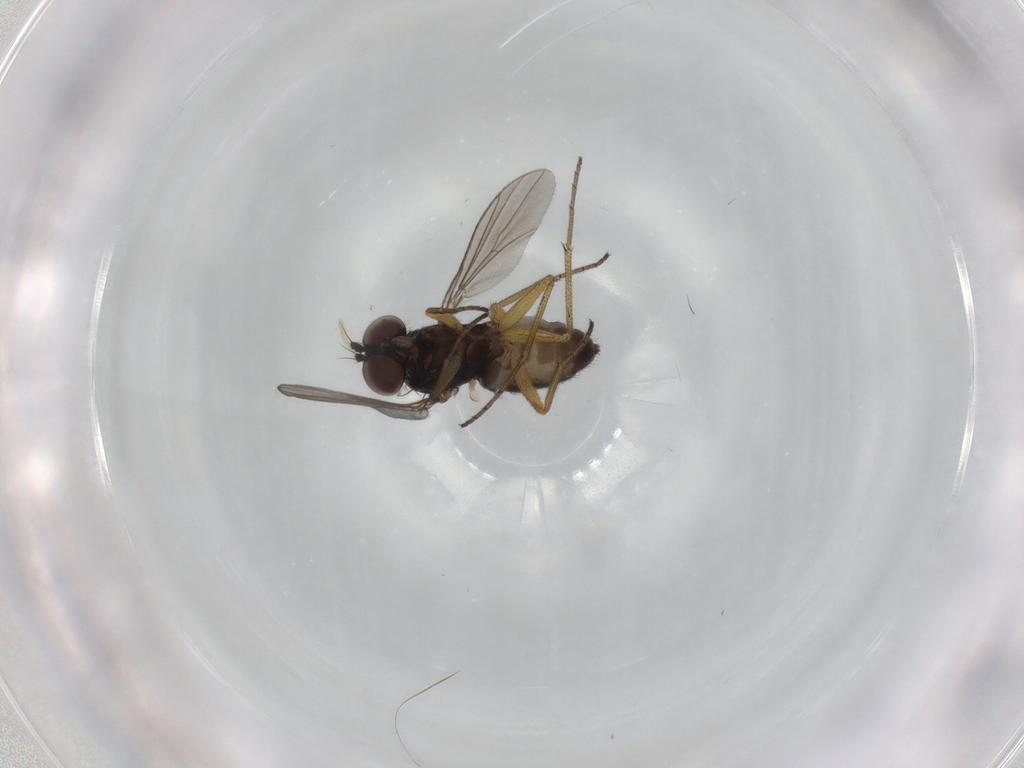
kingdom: Animalia
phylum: Arthropoda
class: Insecta
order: Diptera
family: Dolichopodidae
